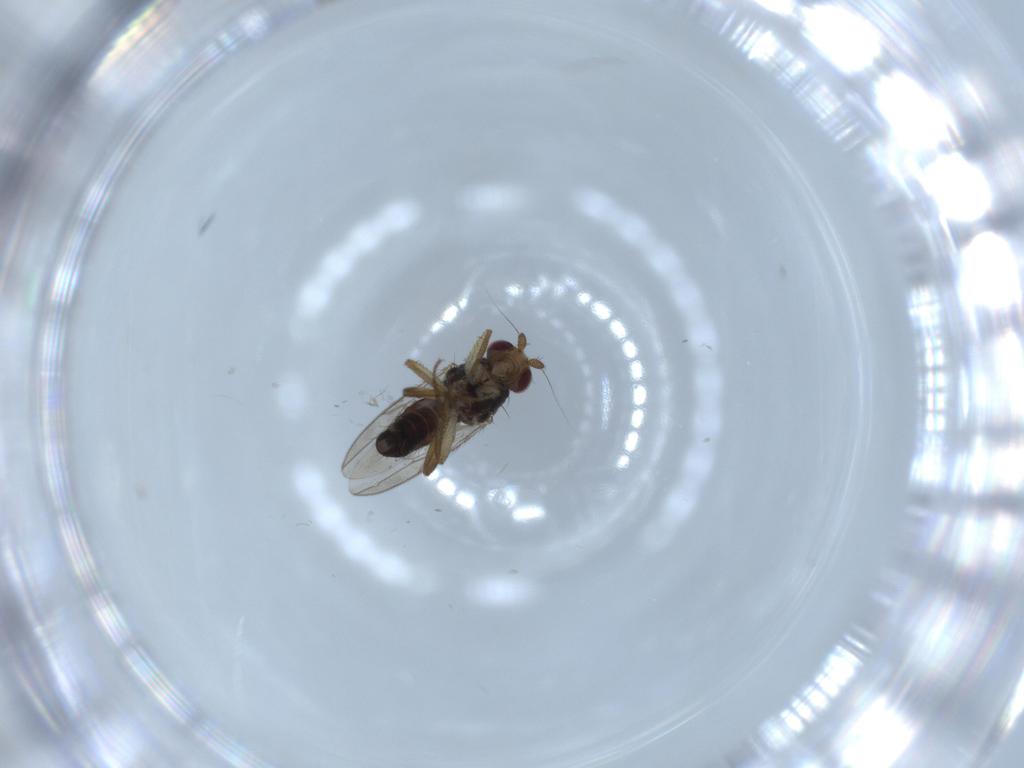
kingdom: Animalia
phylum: Arthropoda
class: Insecta
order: Diptera
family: Sphaeroceridae
